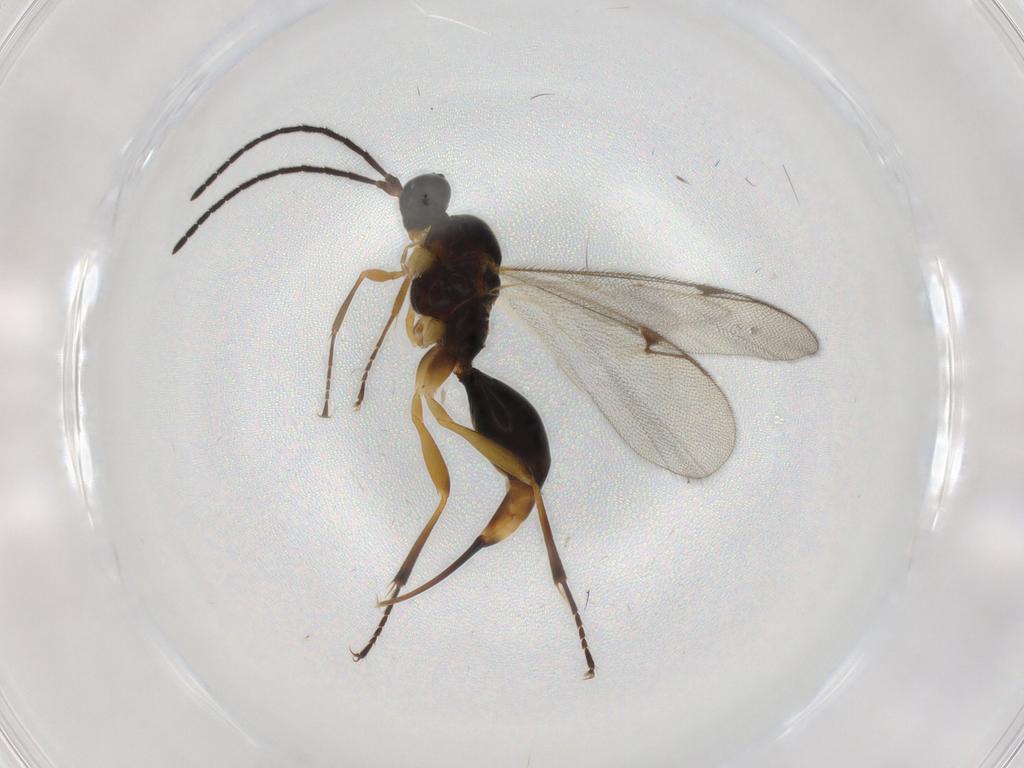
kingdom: Animalia
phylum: Arthropoda
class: Insecta
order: Hymenoptera
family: Proctotrupidae
